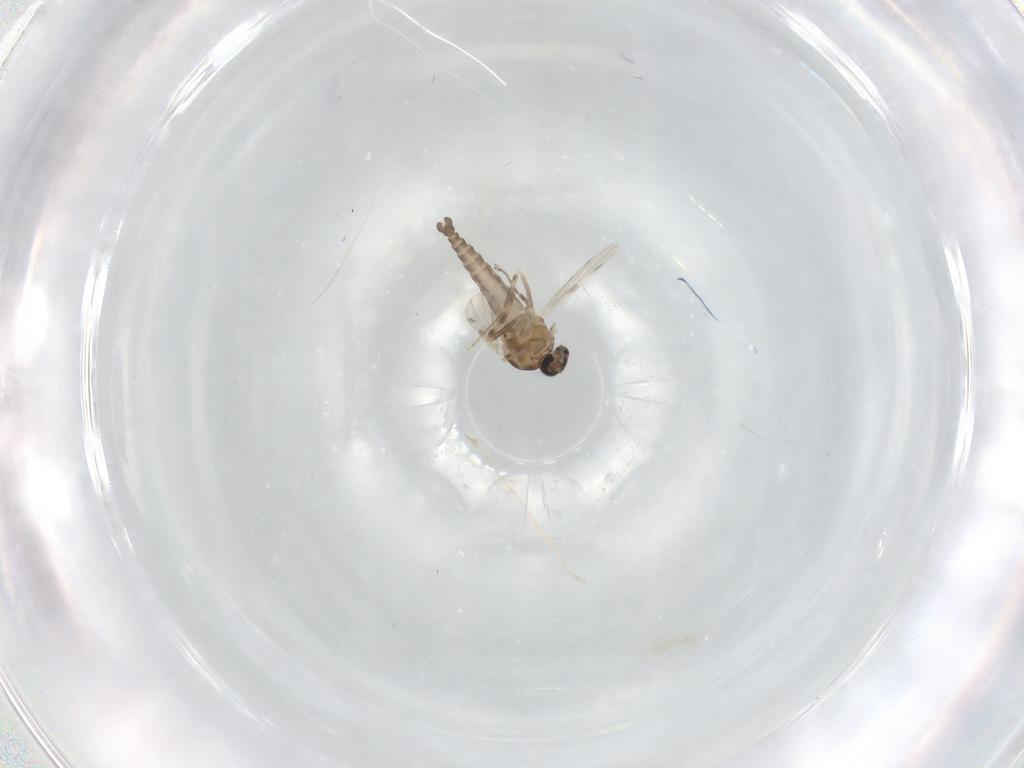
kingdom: Animalia
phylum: Arthropoda
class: Insecta
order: Diptera
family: Ceratopogonidae
